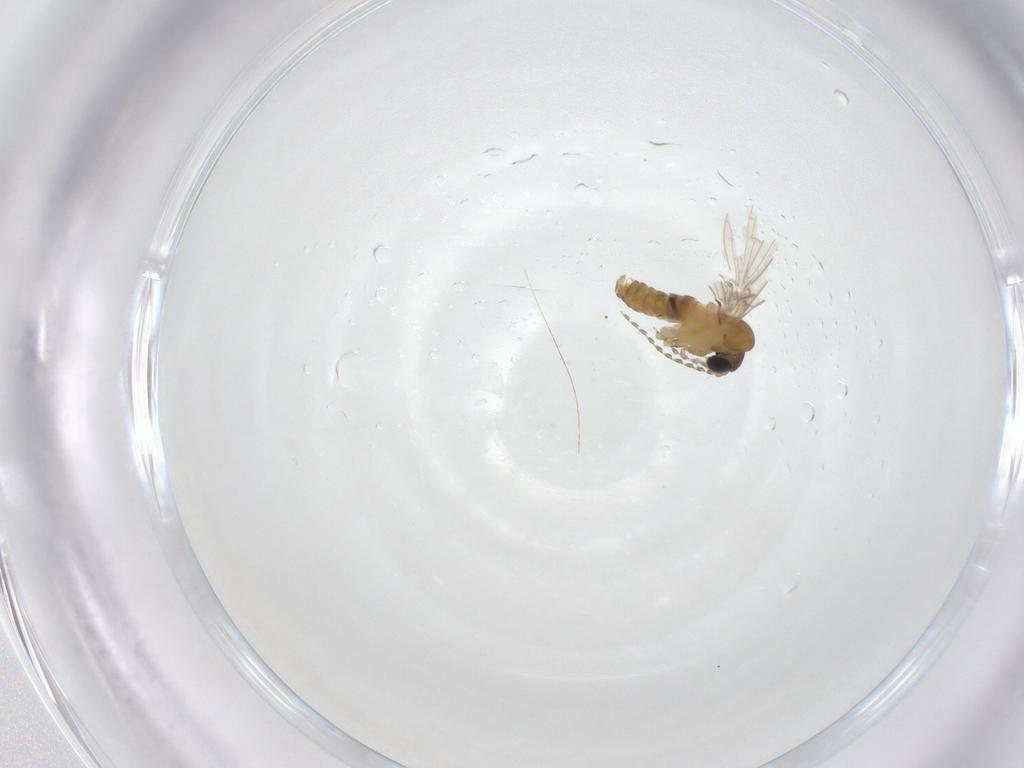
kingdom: Animalia
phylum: Arthropoda
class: Insecta
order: Diptera
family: Psychodidae
